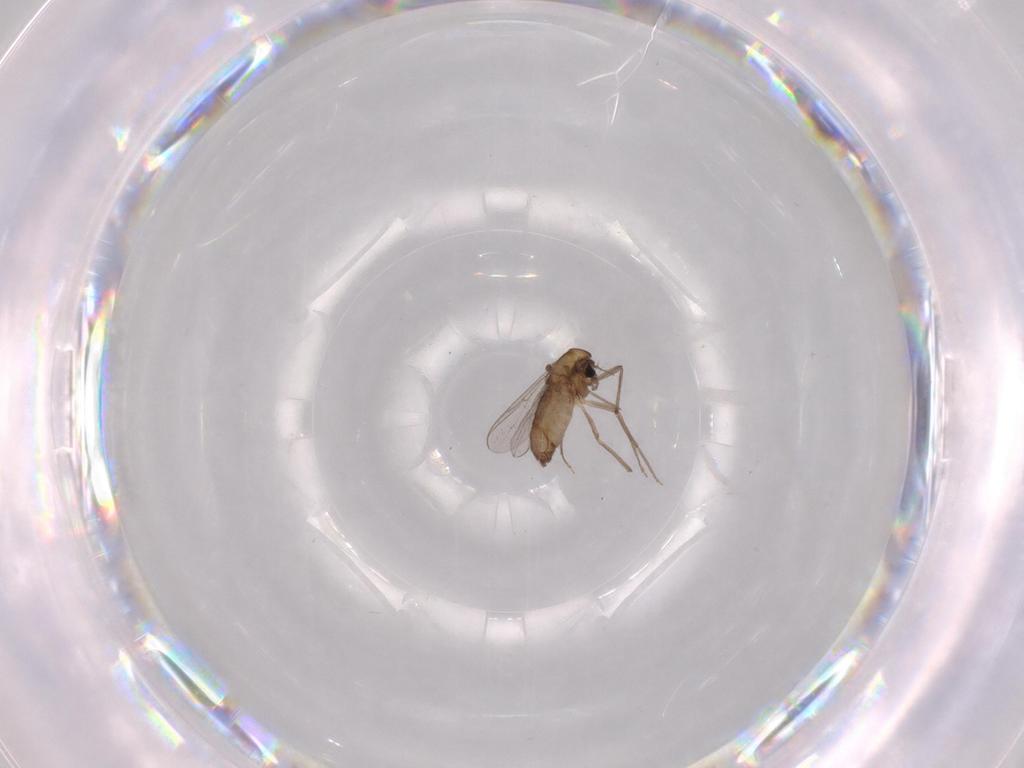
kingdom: Animalia
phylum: Arthropoda
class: Insecta
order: Diptera
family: Chironomidae
